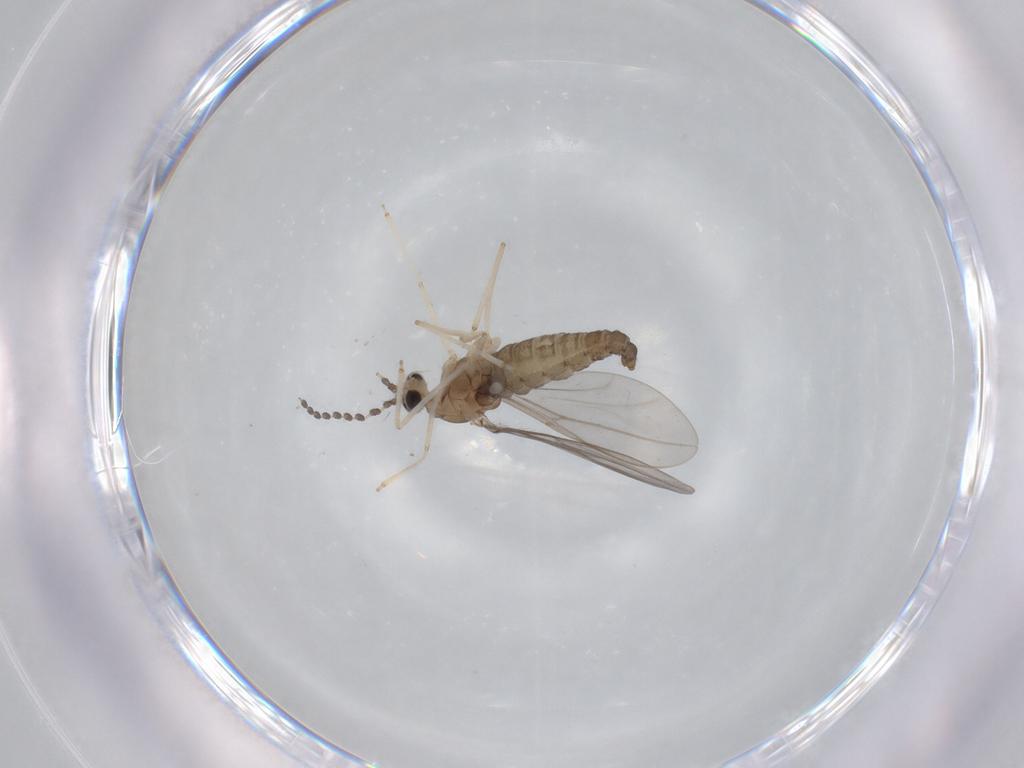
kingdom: Animalia
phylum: Arthropoda
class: Insecta
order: Diptera
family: Cecidomyiidae
